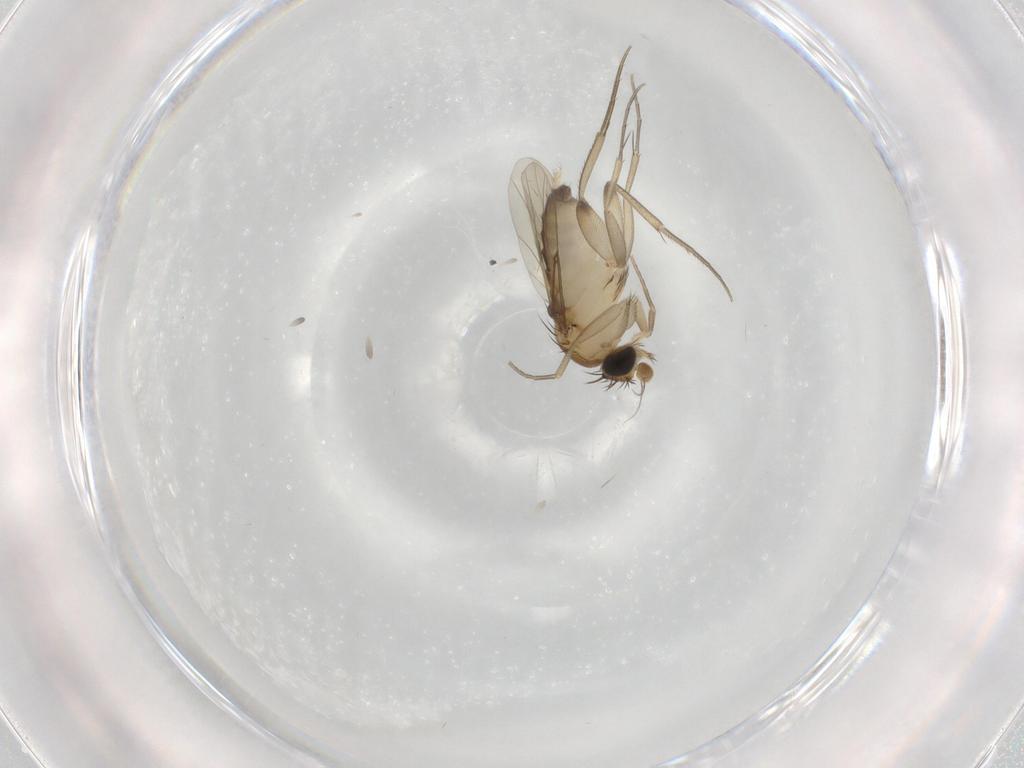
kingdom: Animalia
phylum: Arthropoda
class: Insecta
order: Diptera
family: Phoridae
